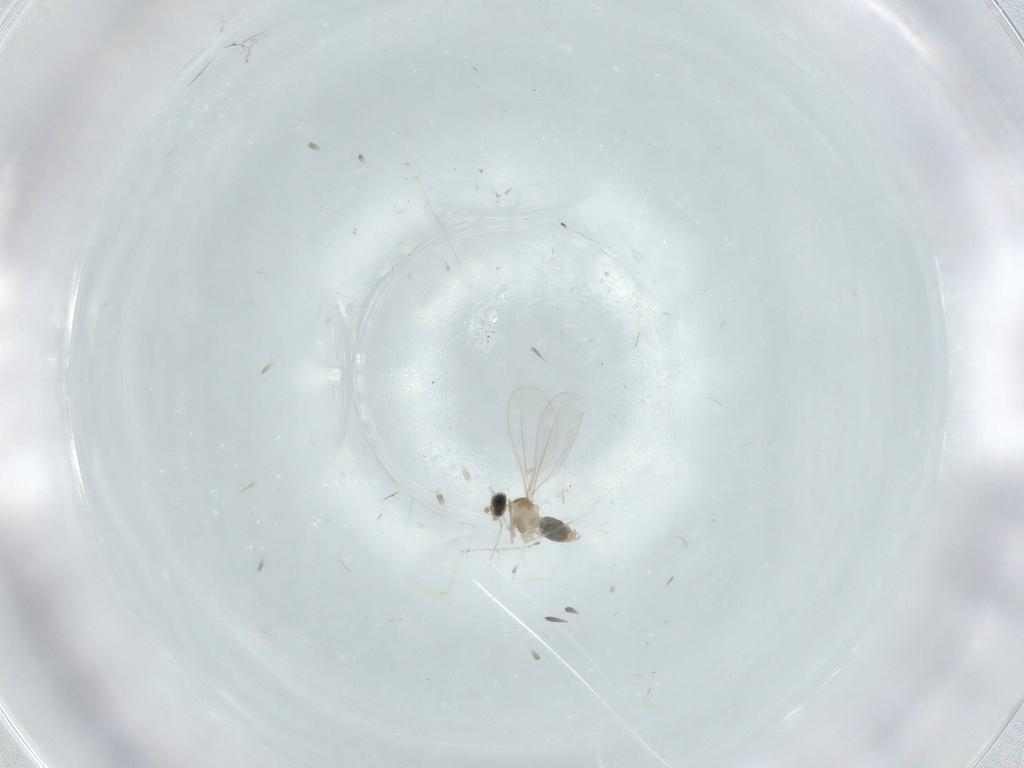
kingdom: Animalia
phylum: Arthropoda
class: Insecta
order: Diptera
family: Cecidomyiidae
